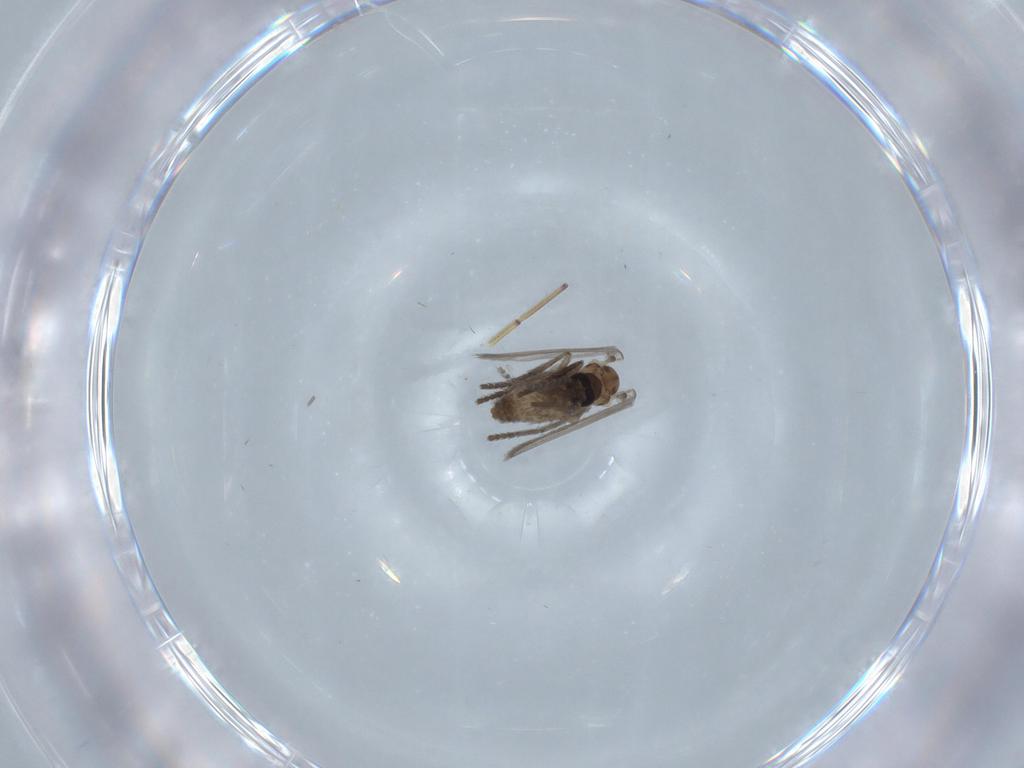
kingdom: Animalia
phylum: Arthropoda
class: Insecta
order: Diptera
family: Psychodidae
